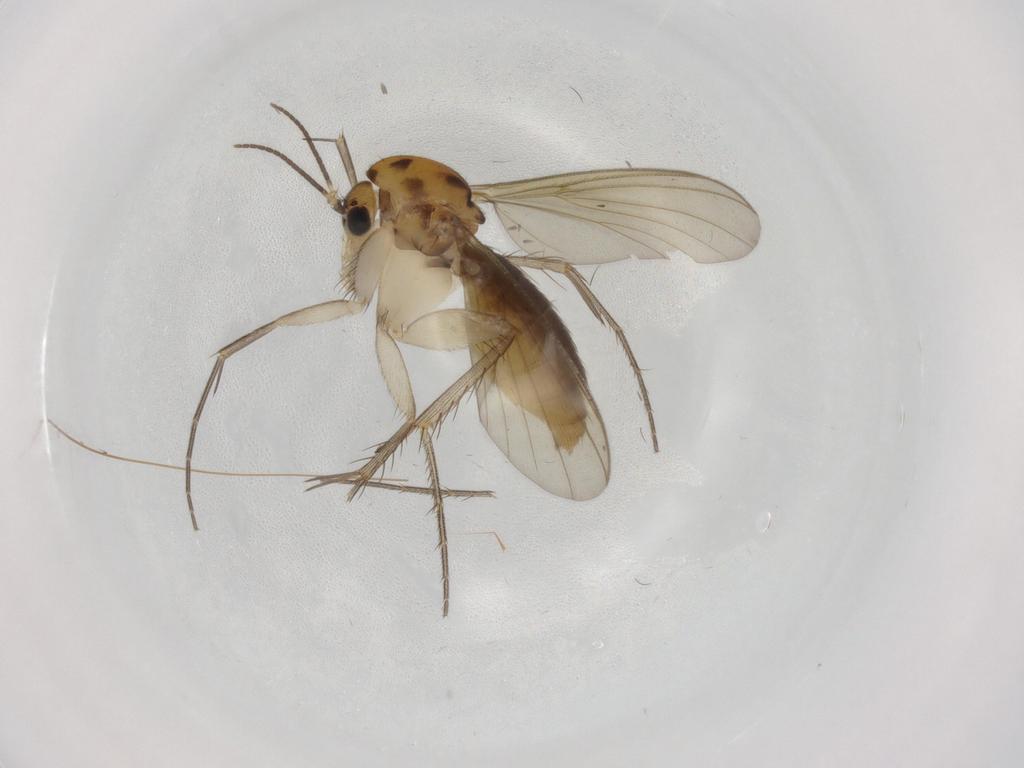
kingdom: Animalia
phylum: Arthropoda
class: Insecta
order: Diptera
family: Mycetophilidae
